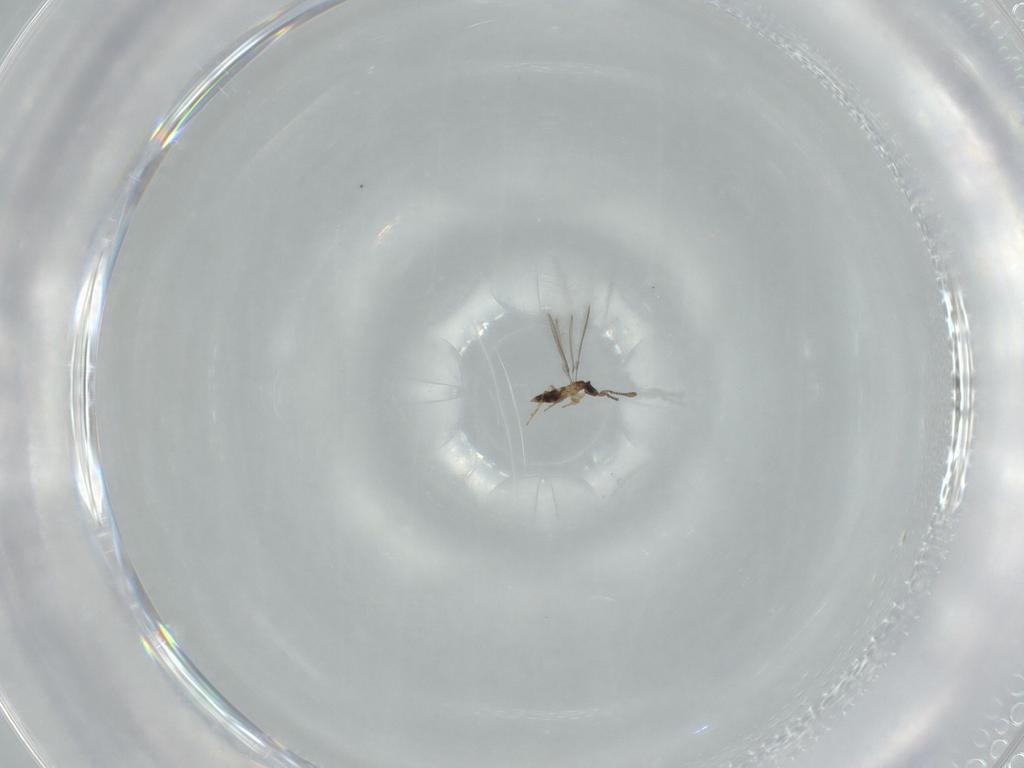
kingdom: Animalia
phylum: Arthropoda
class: Insecta
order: Hymenoptera
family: Mymaridae
